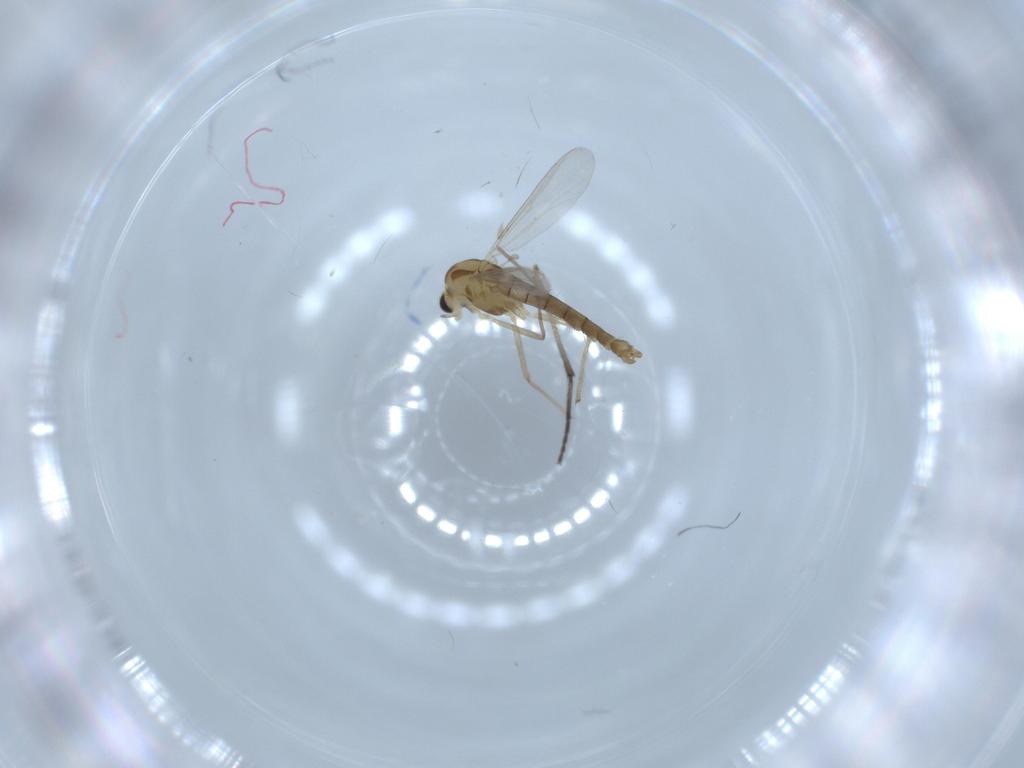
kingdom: Animalia
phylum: Arthropoda
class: Insecta
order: Diptera
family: Chironomidae
